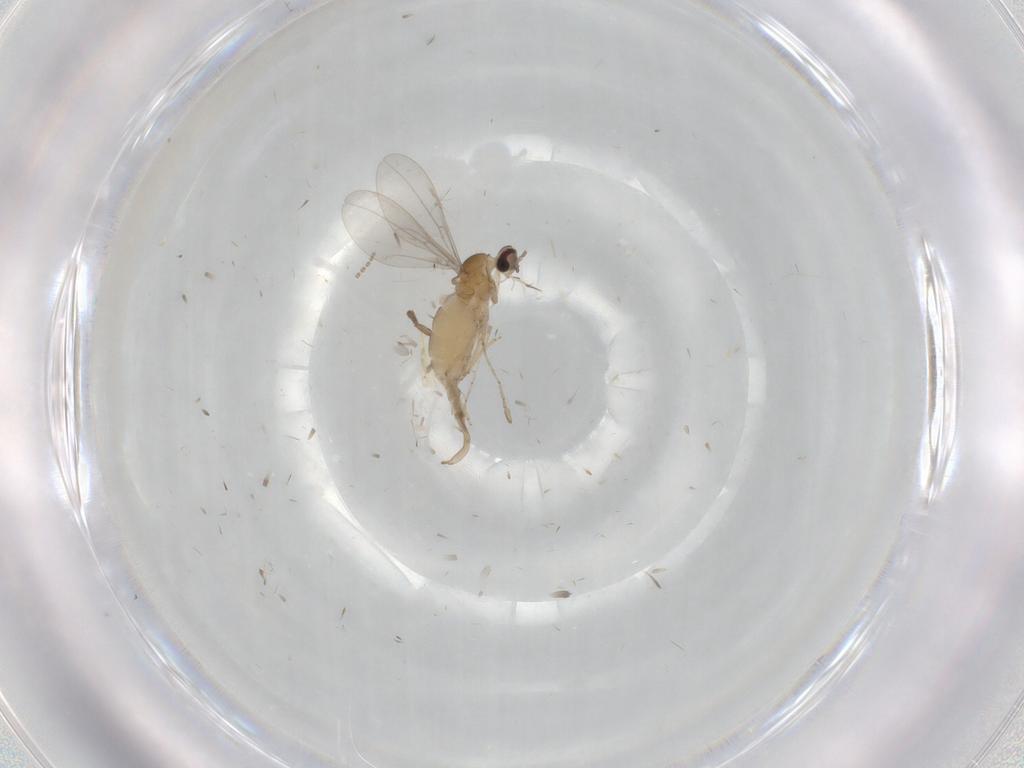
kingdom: Animalia
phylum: Arthropoda
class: Insecta
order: Diptera
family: Cecidomyiidae
